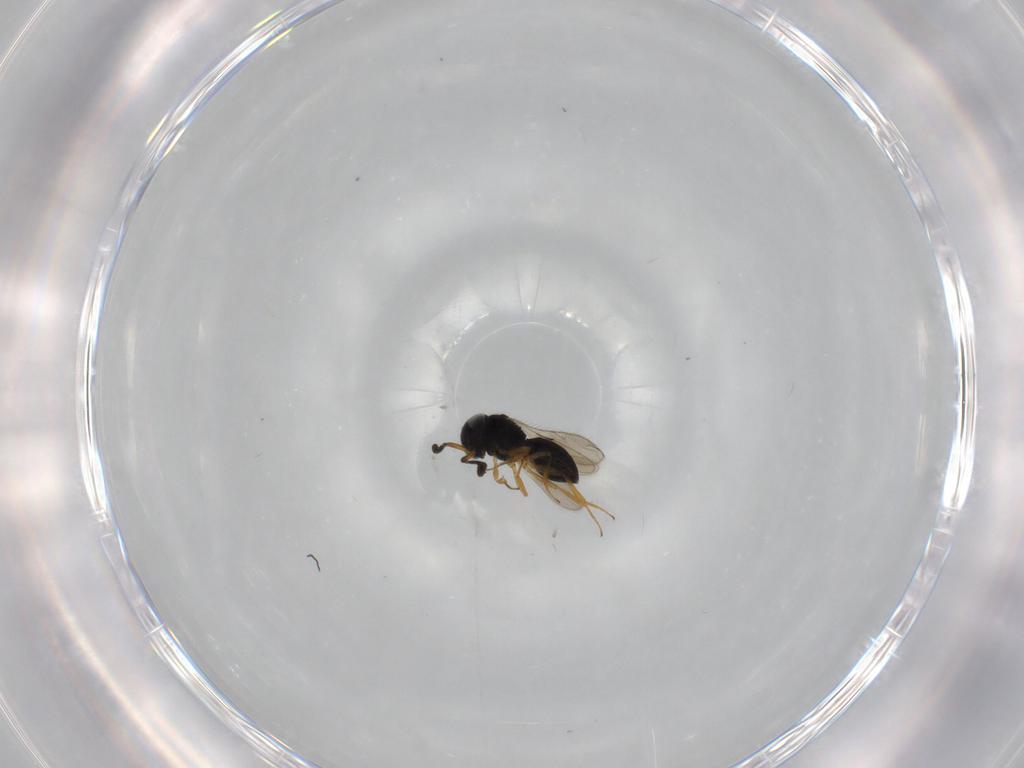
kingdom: Animalia
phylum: Arthropoda
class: Insecta
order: Hymenoptera
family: Scelionidae
